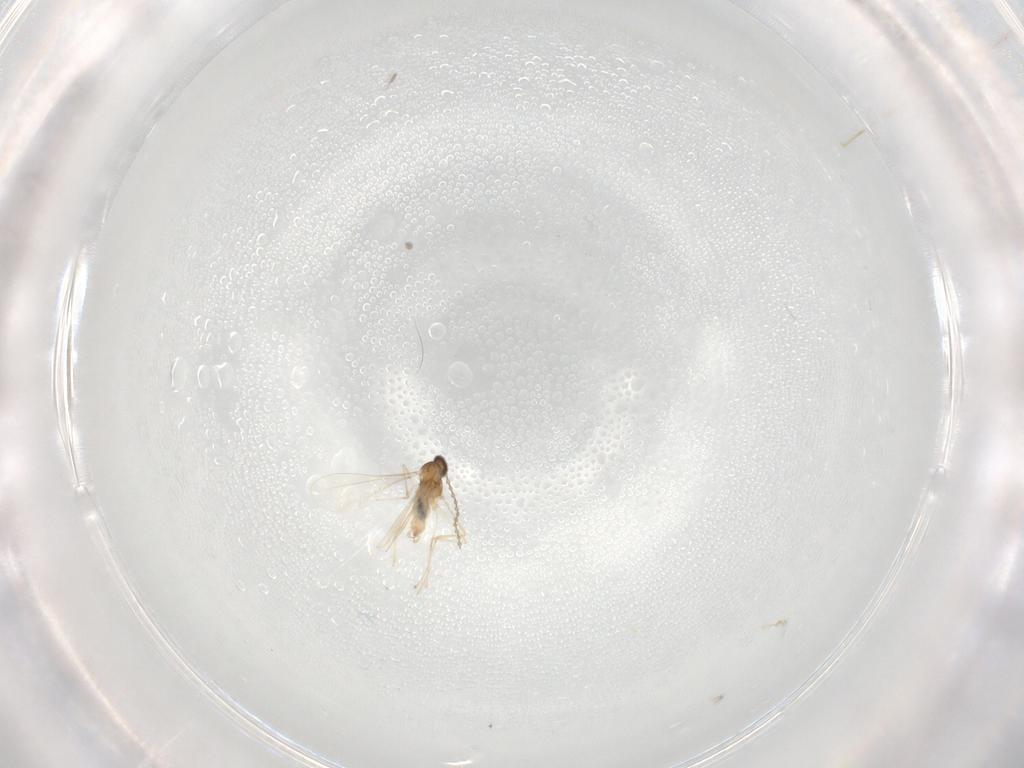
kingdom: Animalia
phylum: Arthropoda
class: Insecta
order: Diptera
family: Cecidomyiidae
